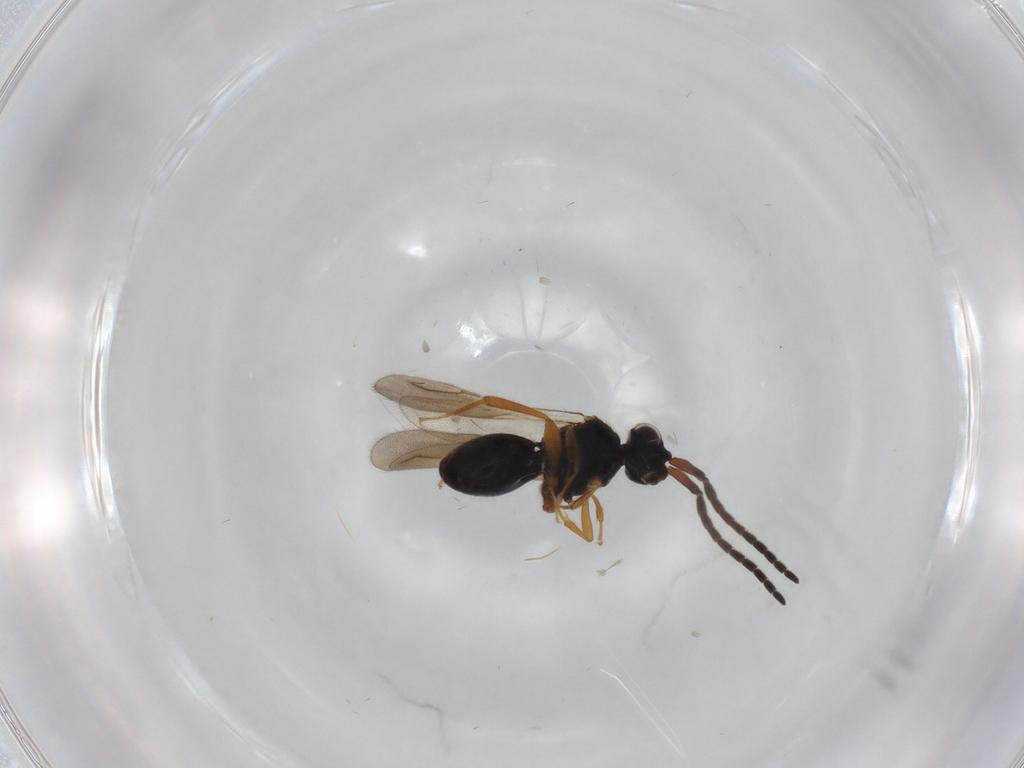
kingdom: Animalia
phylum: Arthropoda
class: Insecta
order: Hymenoptera
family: Ceraphronidae
